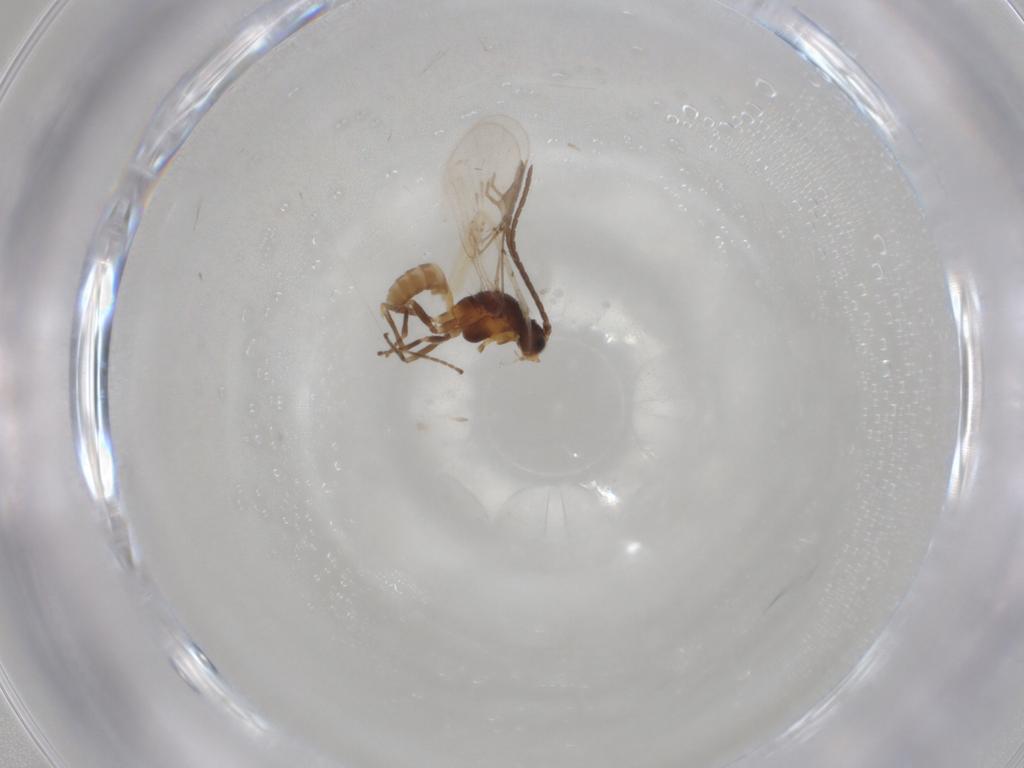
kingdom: Animalia
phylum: Arthropoda
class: Insecta
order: Hymenoptera
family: Braconidae
